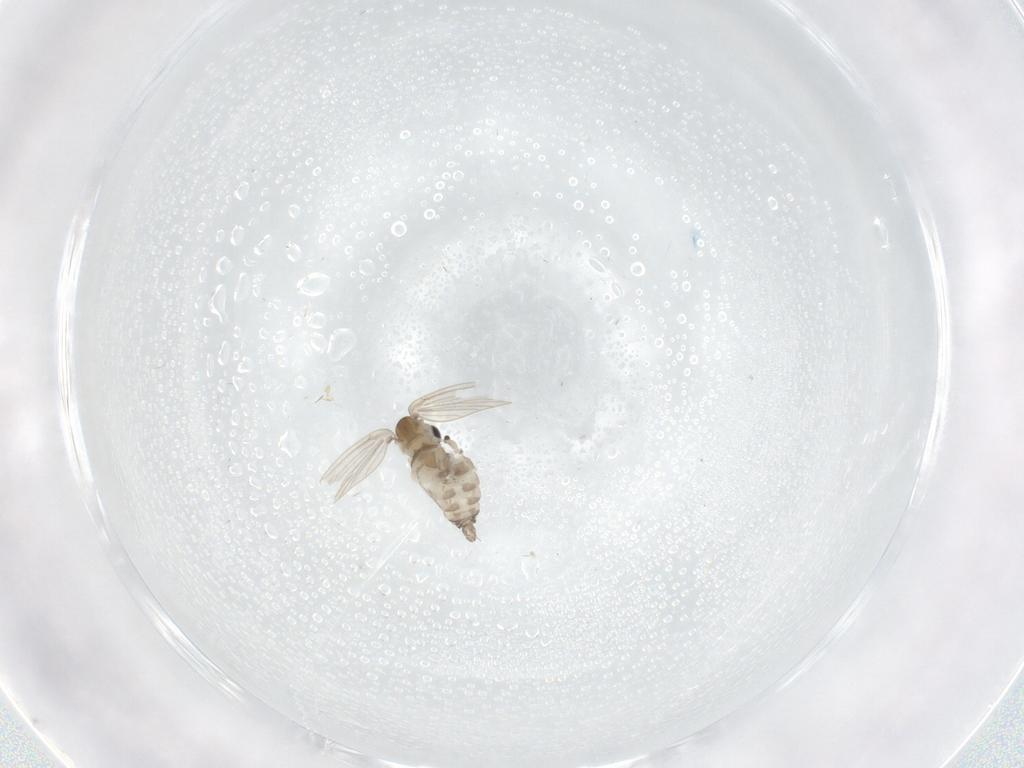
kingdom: Animalia
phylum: Arthropoda
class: Insecta
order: Diptera
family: Psychodidae
